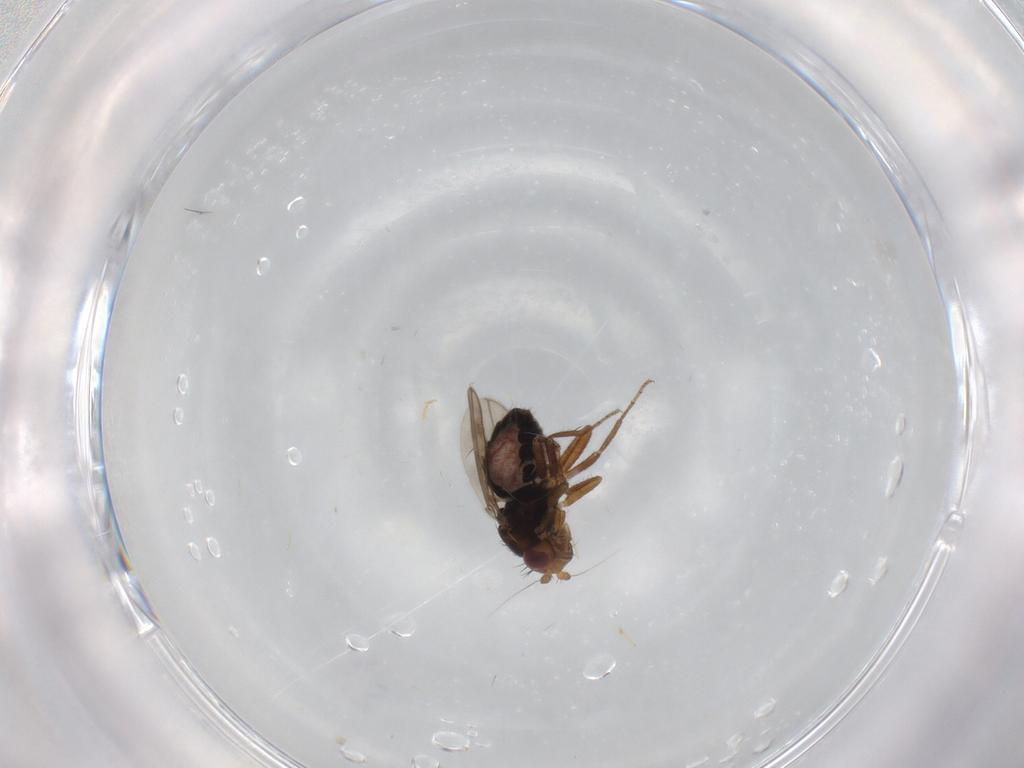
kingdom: Animalia
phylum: Arthropoda
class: Insecta
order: Diptera
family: Sphaeroceridae
